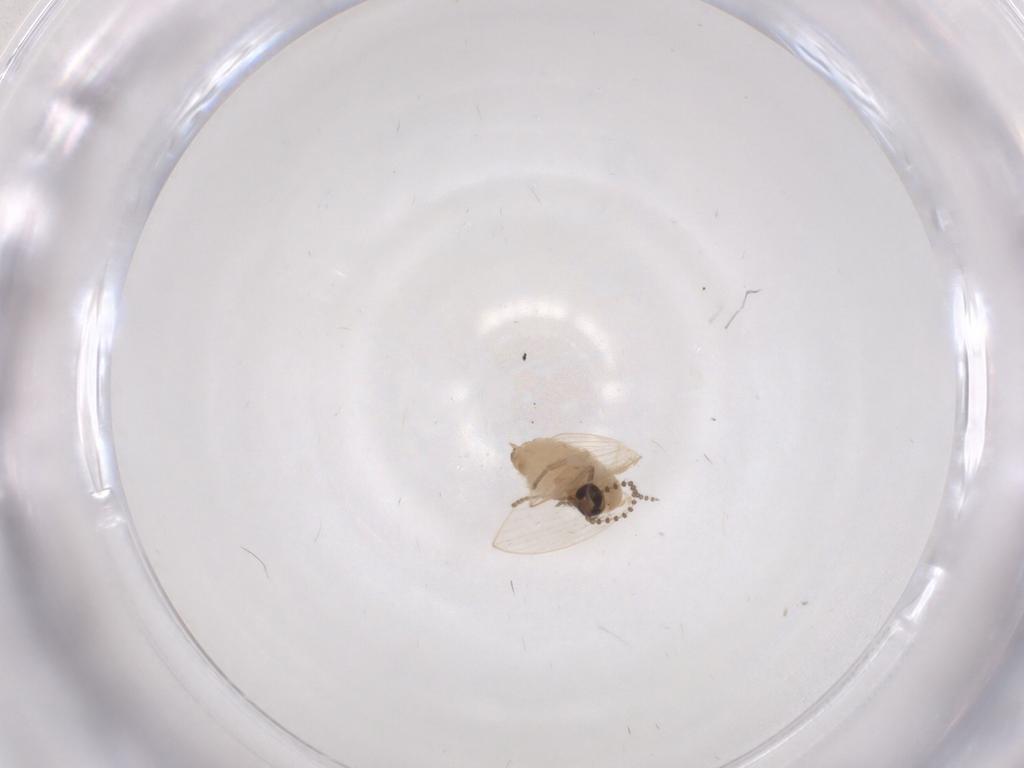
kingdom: Animalia
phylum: Arthropoda
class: Insecta
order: Diptera
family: Psychodidae
